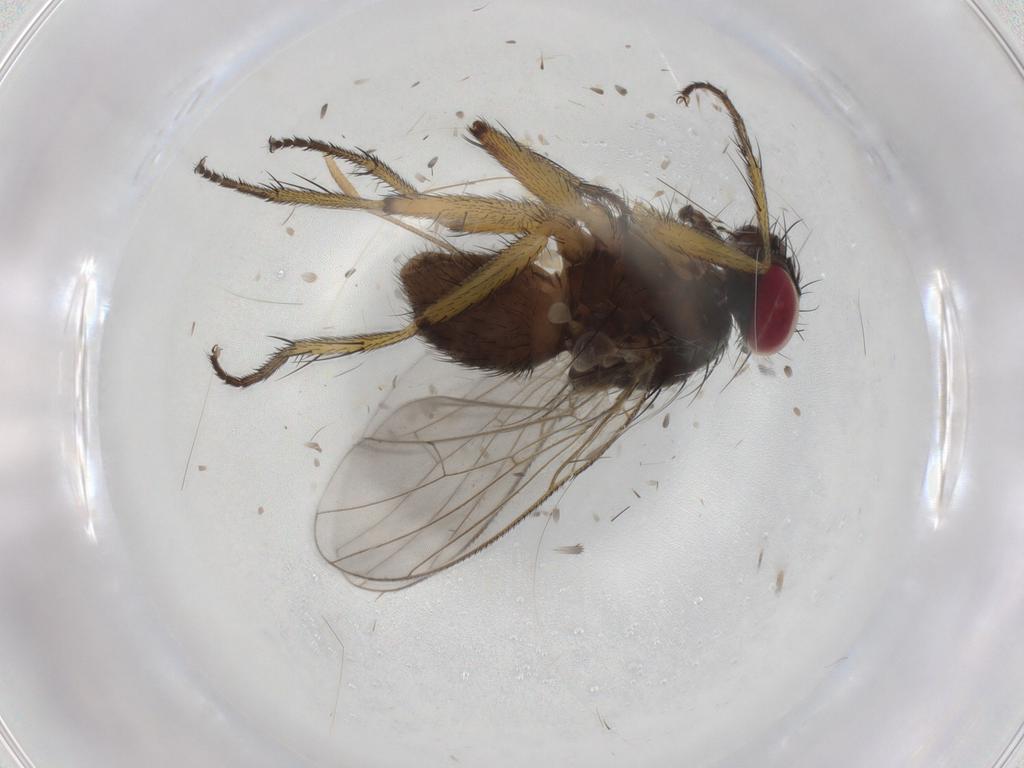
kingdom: Animalia
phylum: Arthropoda
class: Insecta
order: Diptera
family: Muscidae
